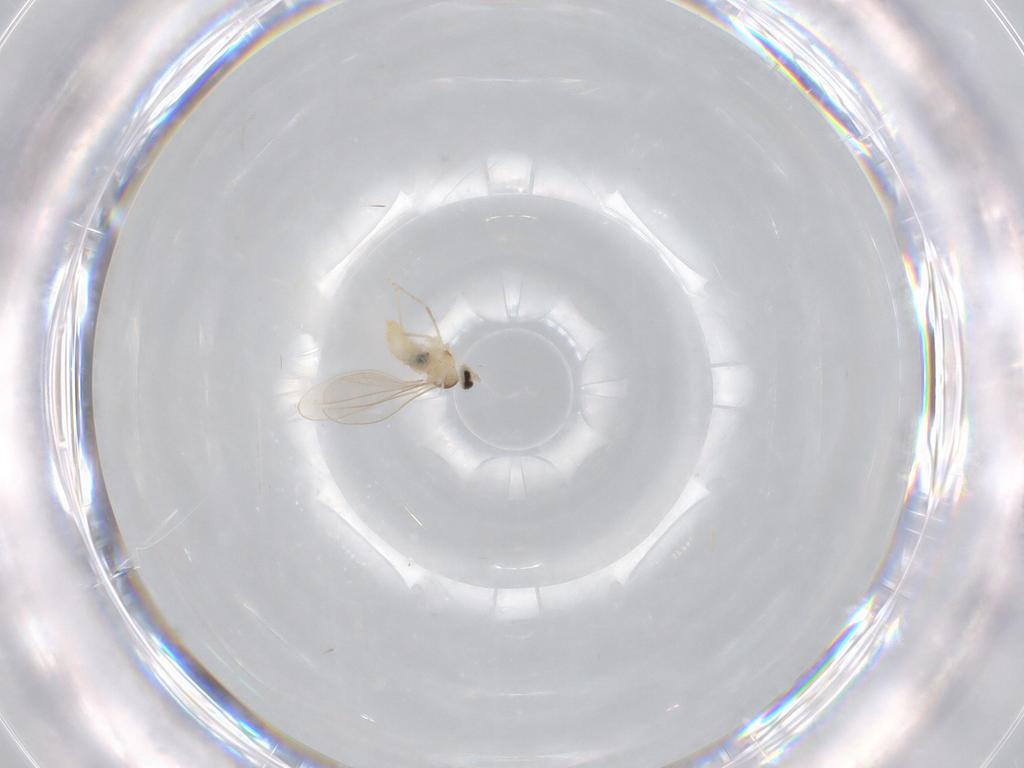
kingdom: Animalia
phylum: Arthropoda
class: Insecta
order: Diptera
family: Cecidomyiidae
